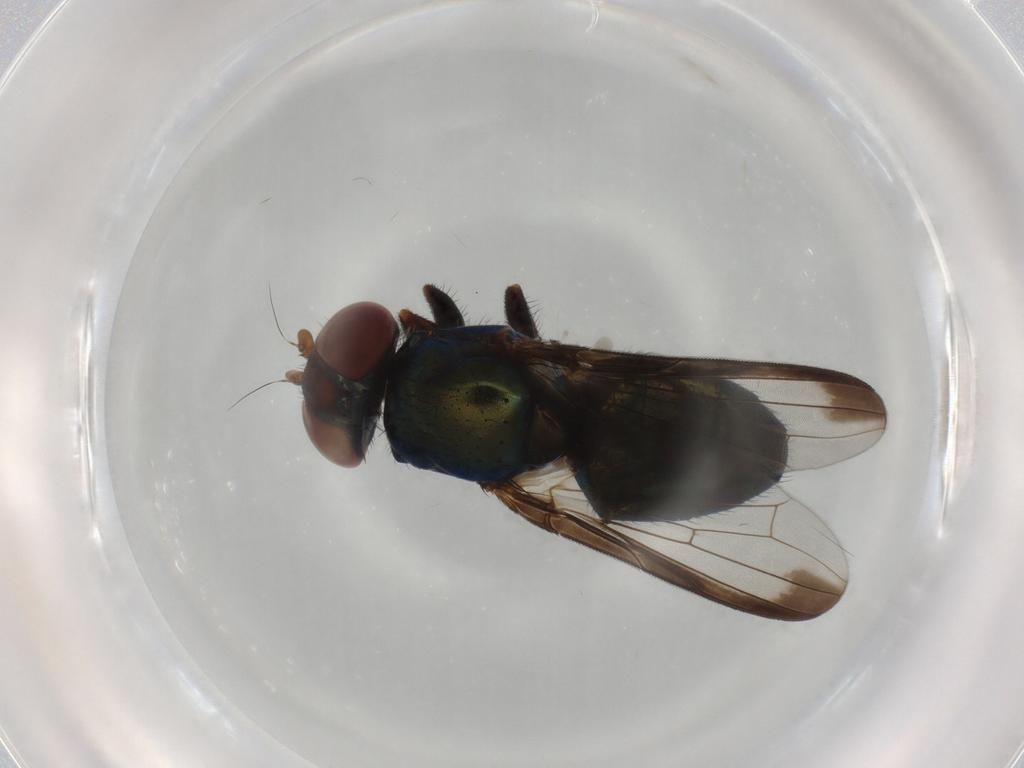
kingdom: Animalia
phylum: Arthropoda
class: Insecta
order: Diptera
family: Ulidiidae
